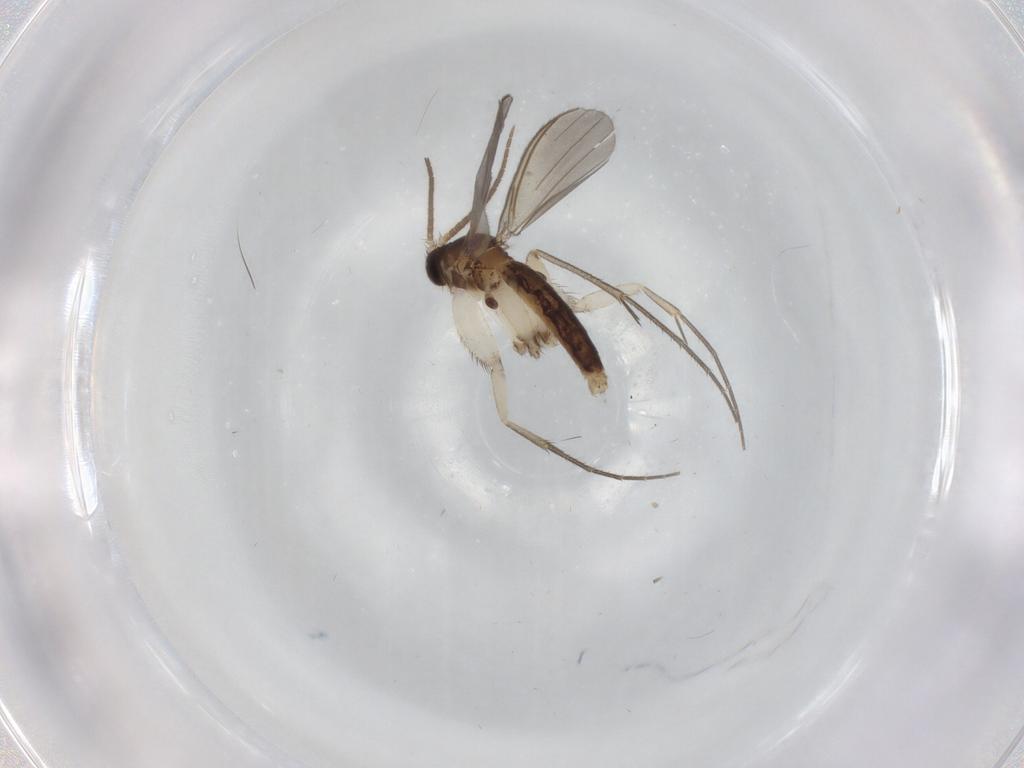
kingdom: Animalia
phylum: Arthropoda
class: Insecta
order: Diptera
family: Mycetophilidae
